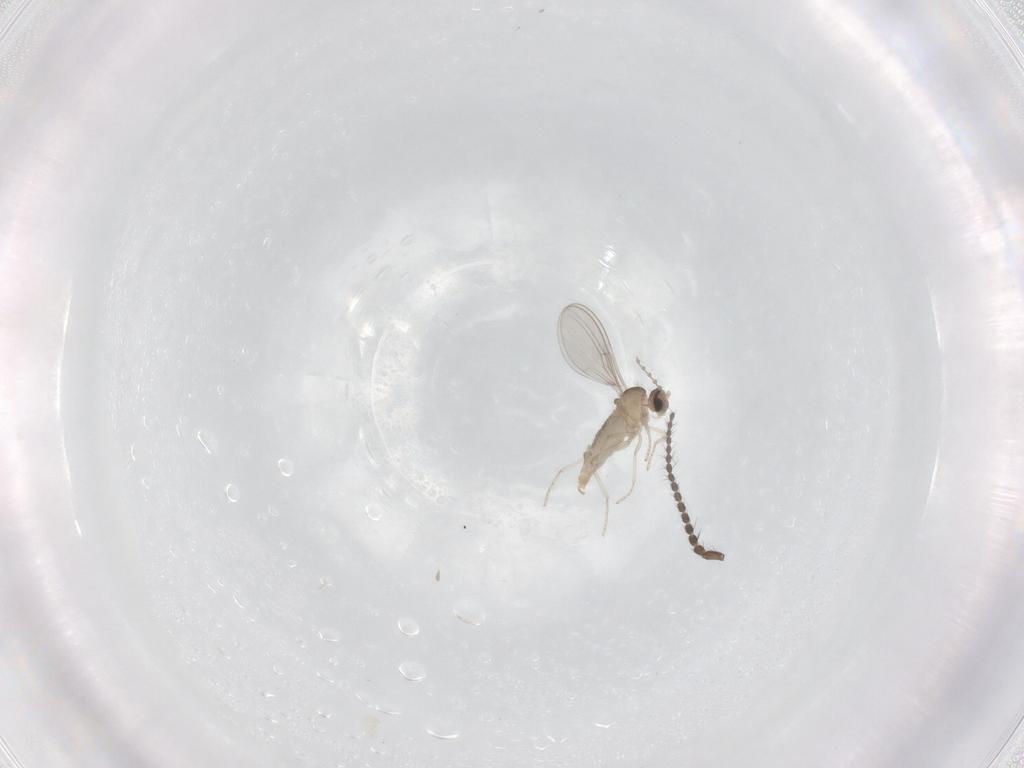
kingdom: Animalia
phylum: Arthropoda
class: Insecta
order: Diptera
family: Limoniidae
